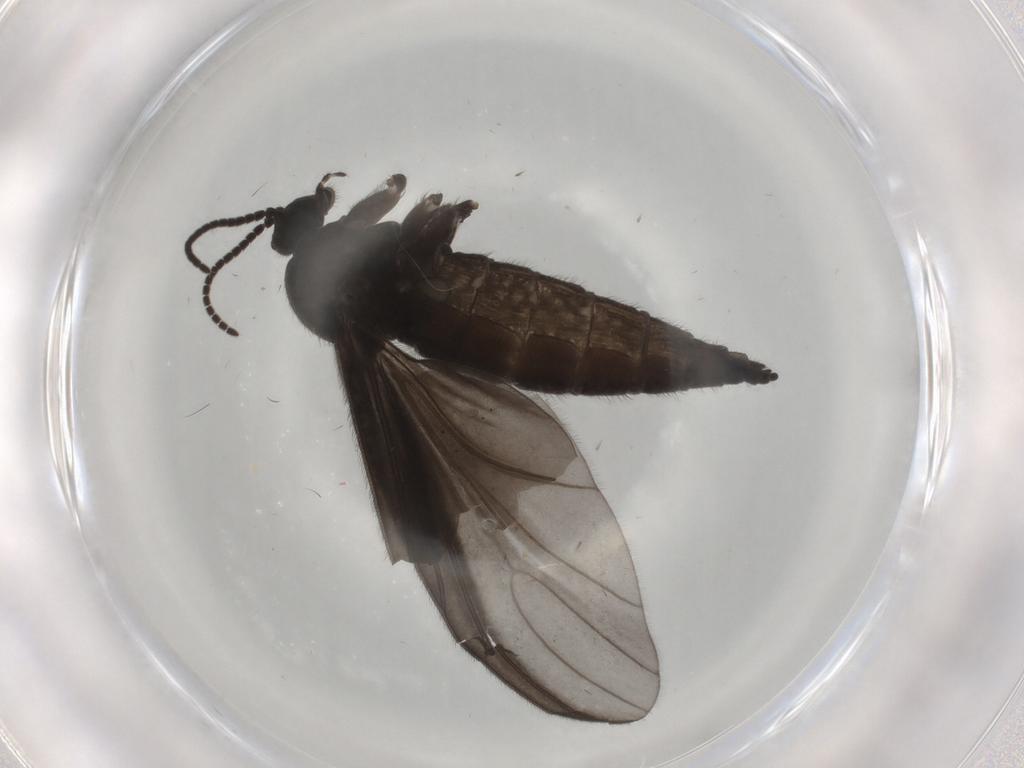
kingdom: Animalia
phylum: Arthropoda
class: Insecta
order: Diptera
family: Sciaridae
